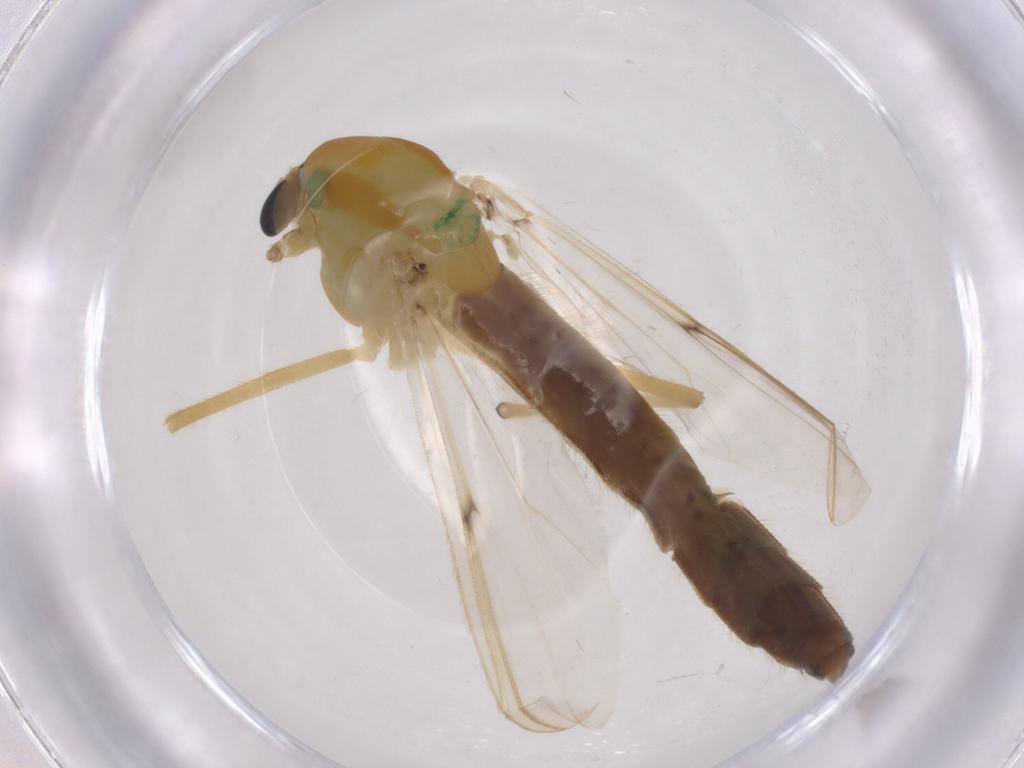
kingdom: Animalia
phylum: Arthropoda
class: Insecta
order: Diptera
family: Chironomidae
